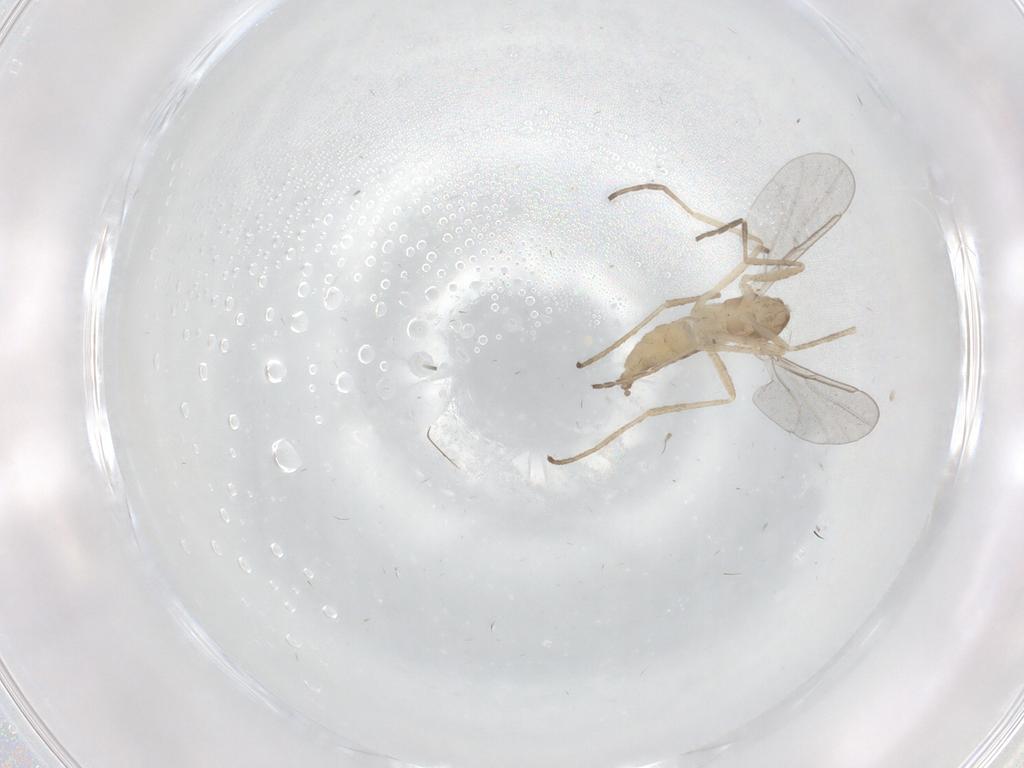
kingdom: Animalia
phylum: Arthropoda
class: Insecta
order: Diptera
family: Cecidomyiidae
